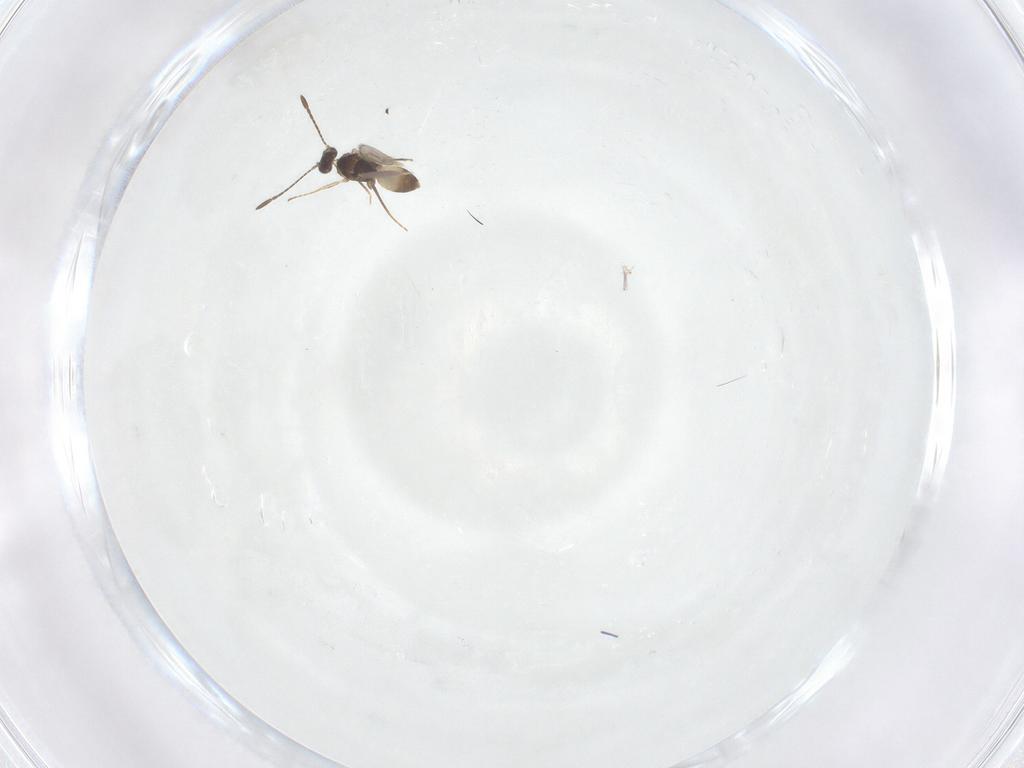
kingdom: Animalia
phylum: Arthropoda
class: Insecta
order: Hymenoptera
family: Mymaridae
